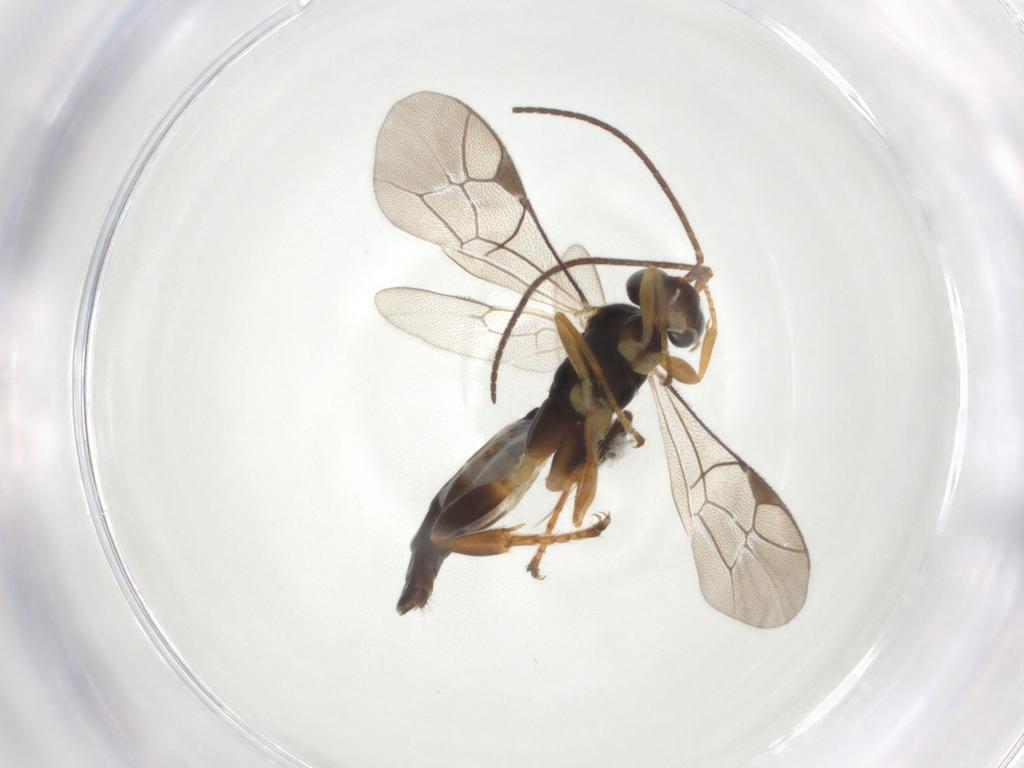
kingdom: Animalia
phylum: Arthropoda
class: Insecta
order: Hymenoptera
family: Ichneumonidae
